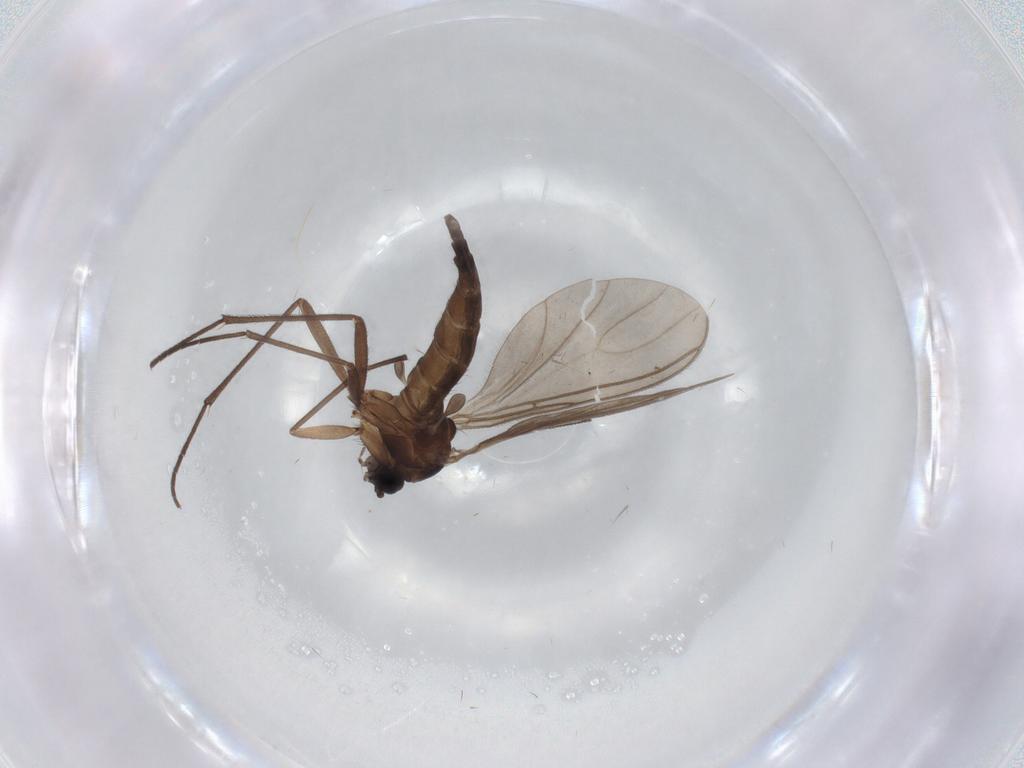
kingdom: Animalia
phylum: Arthropoda
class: Insecta
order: Diptera
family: Sciaridae
